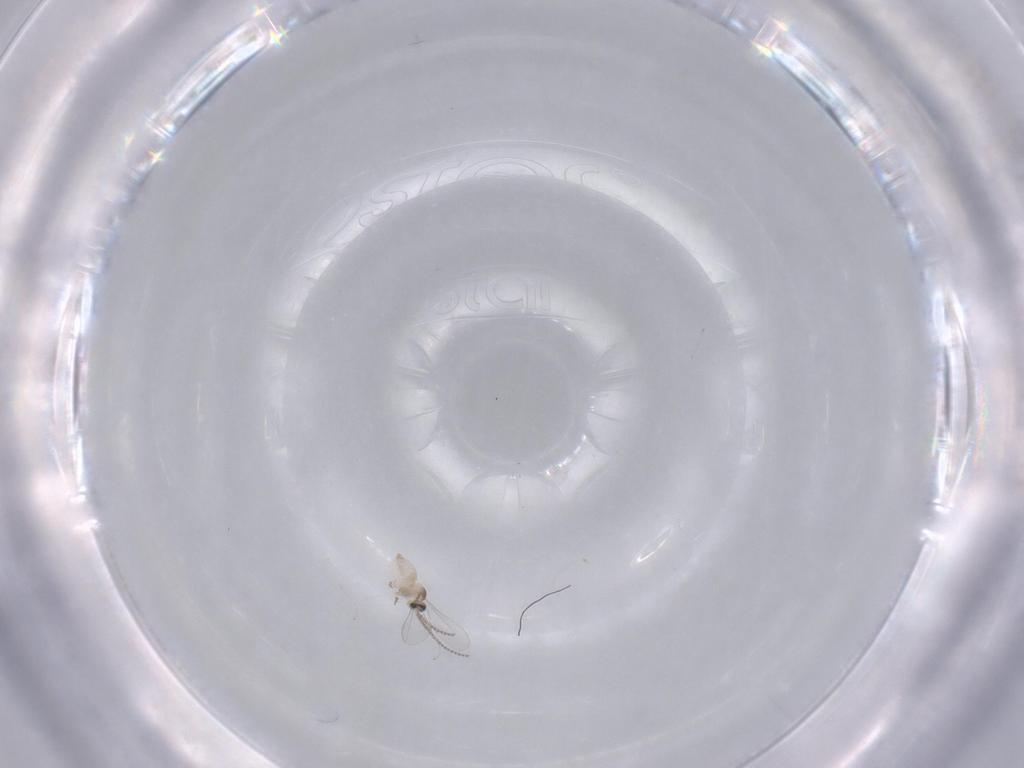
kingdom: Animalia
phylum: Arthropoda
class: Insecta
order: Diptera
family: Cecidomyiidae
